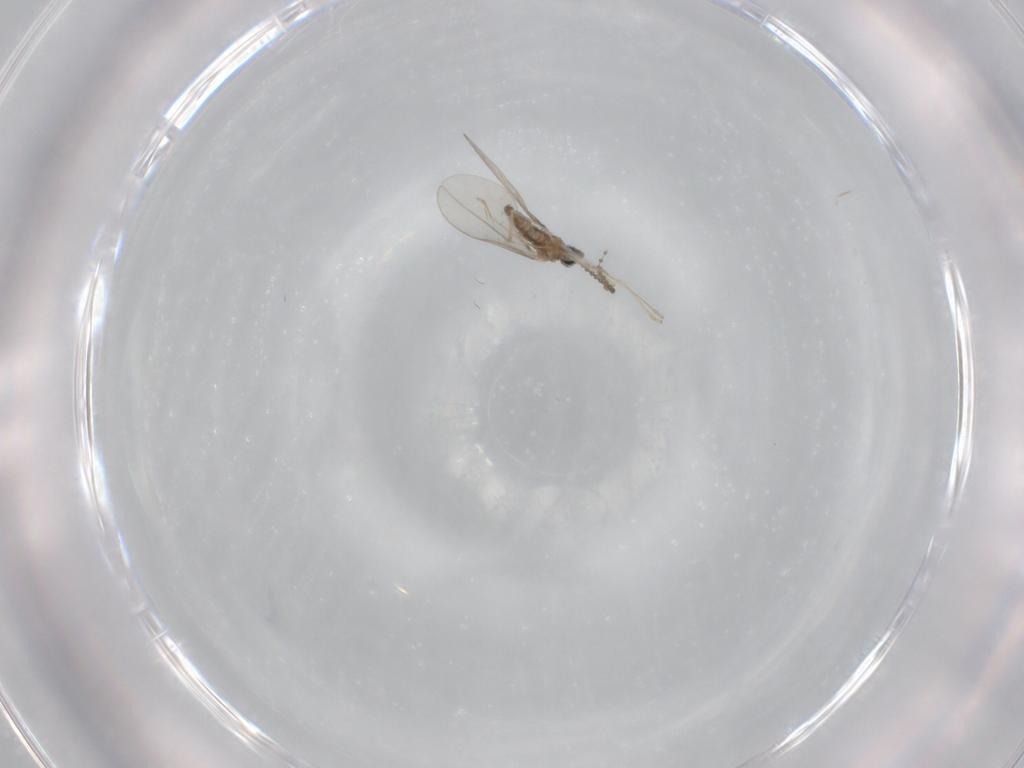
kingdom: Animalia
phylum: Arthropoda
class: Insecta
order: Diptera
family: Cecidomyiidae
